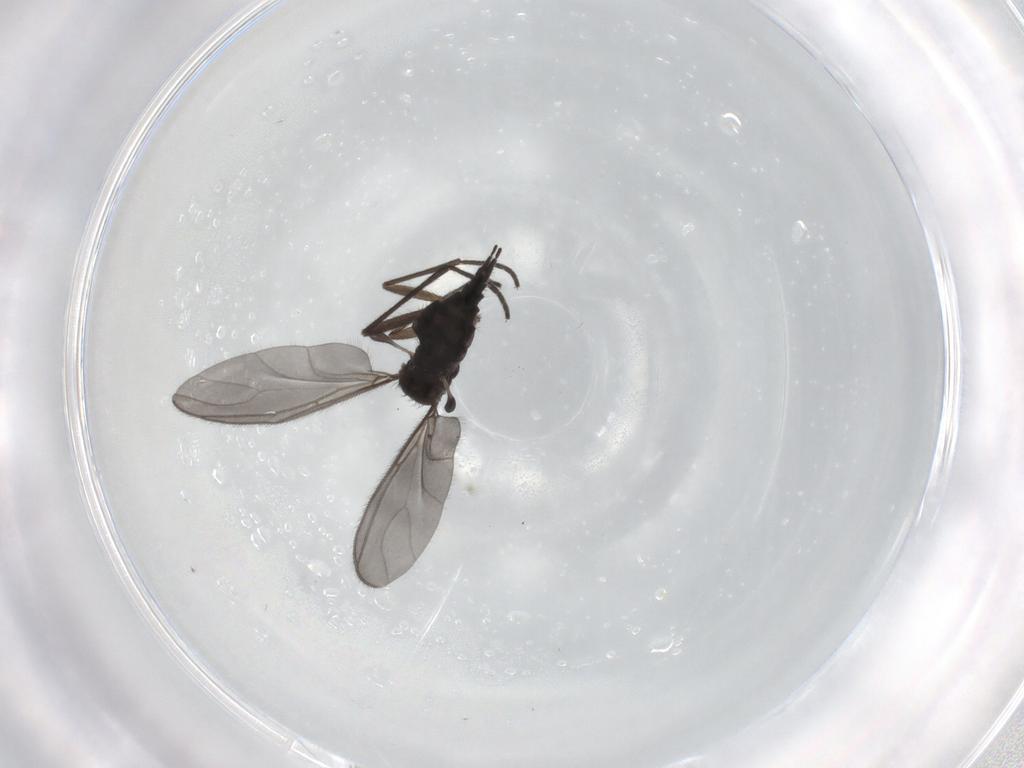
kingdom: Animalia
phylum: Arthropoda
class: Insecta
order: Diptera
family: Sciaridae
